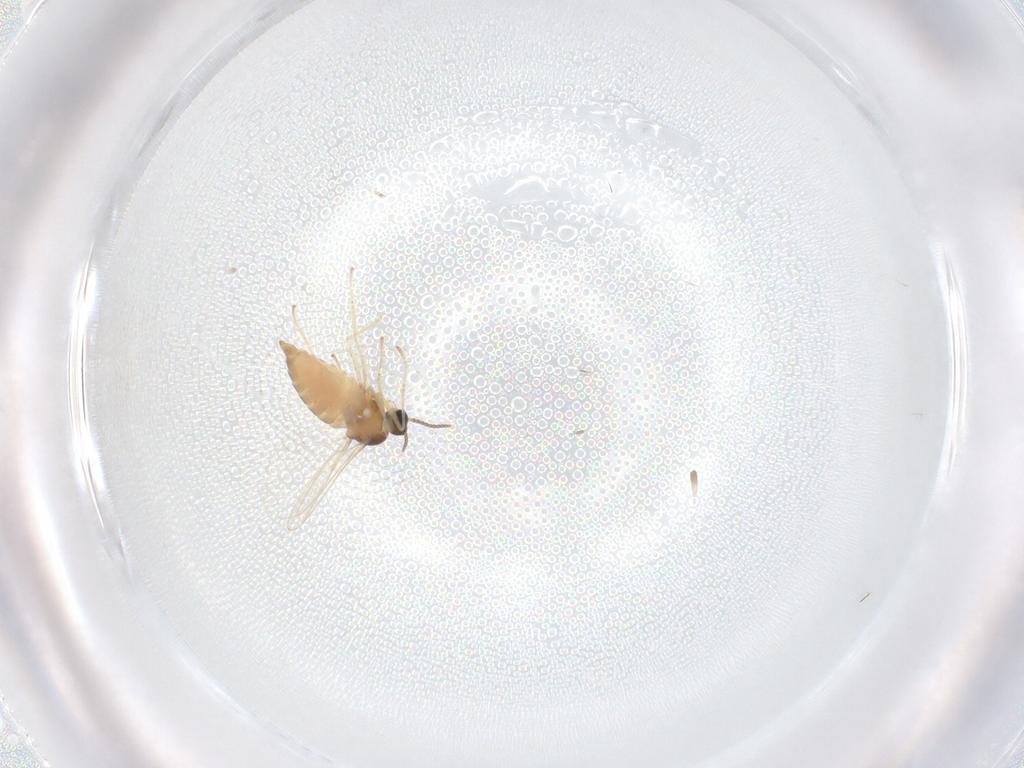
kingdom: Animalia
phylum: Arthropoda
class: Insecta
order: Diptera
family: Cecidomyiidae
